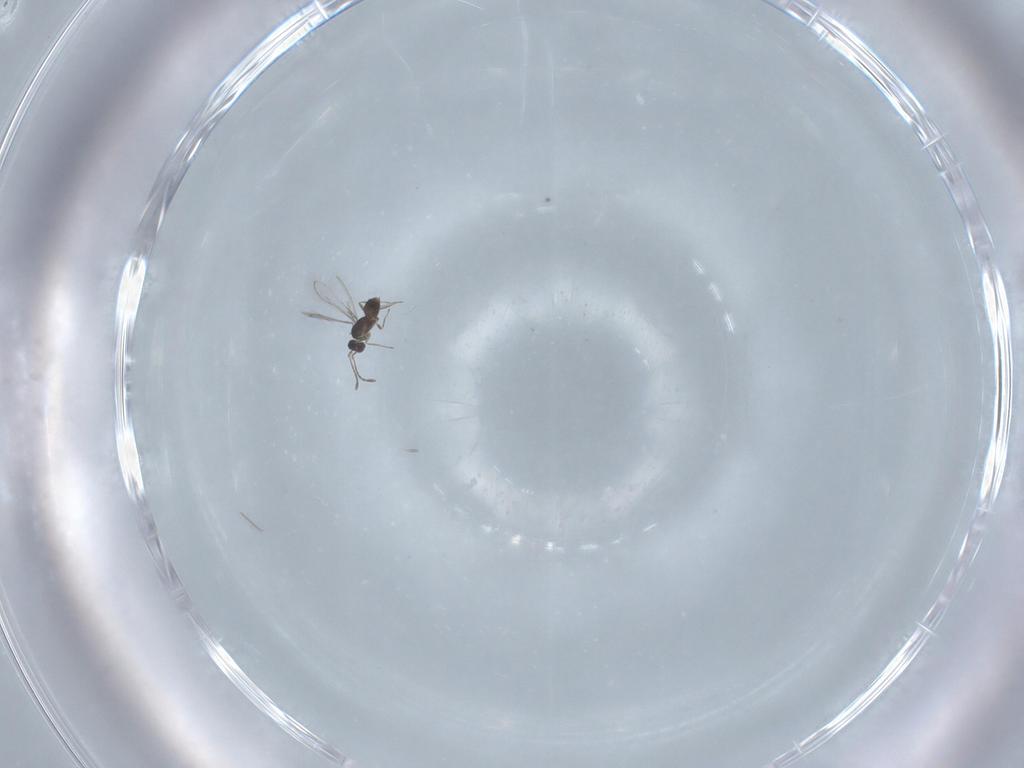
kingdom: Animalia
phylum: Arthropoda
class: Insecta
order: Hymenoptera
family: Mymaridae
